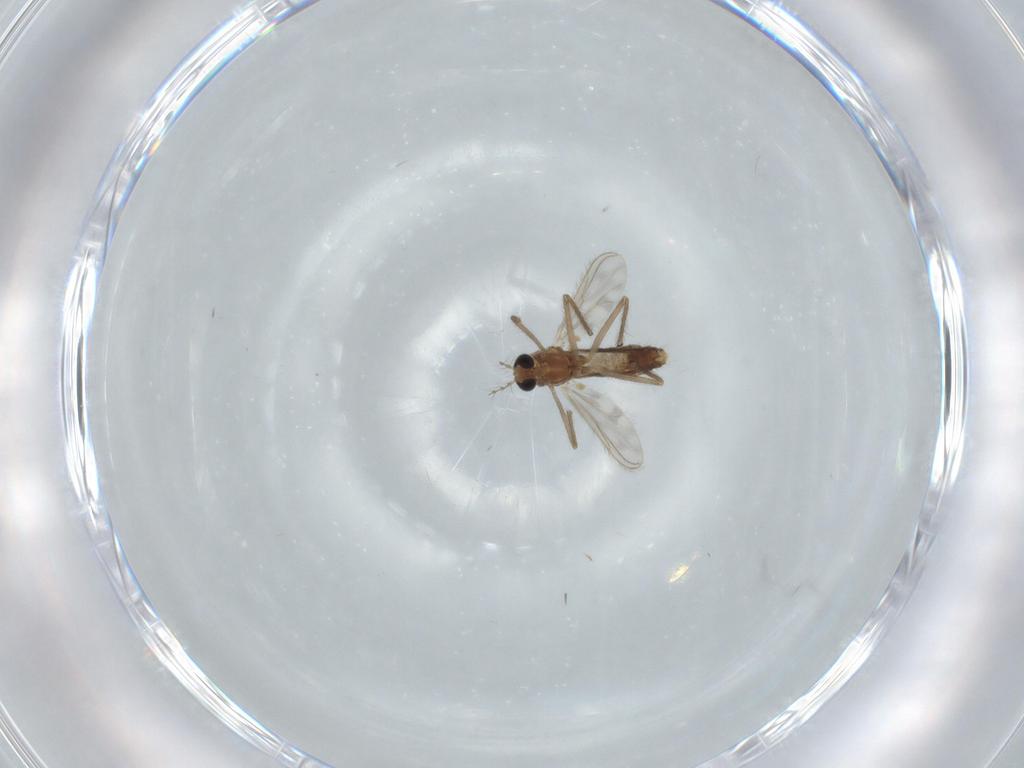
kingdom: Animalia
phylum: Arthropoda
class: Insecta
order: Diptera
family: Chironomidae
